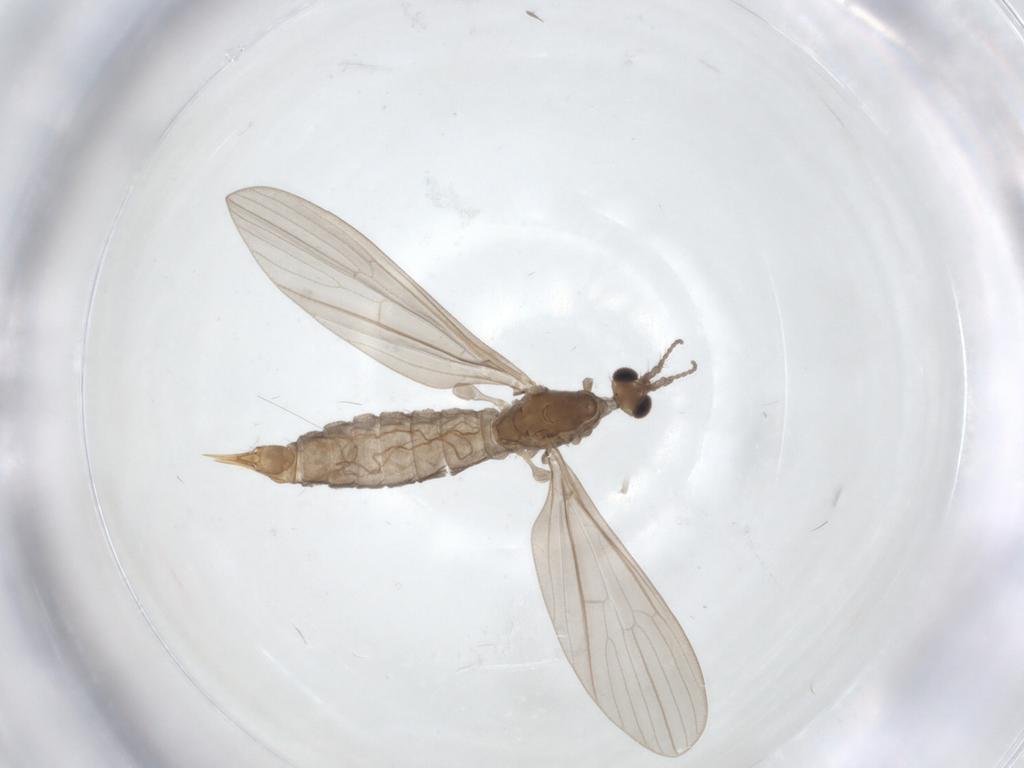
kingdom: Animalia
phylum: Arthropoda
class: Insecta
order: Diptera
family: Limoniidae
